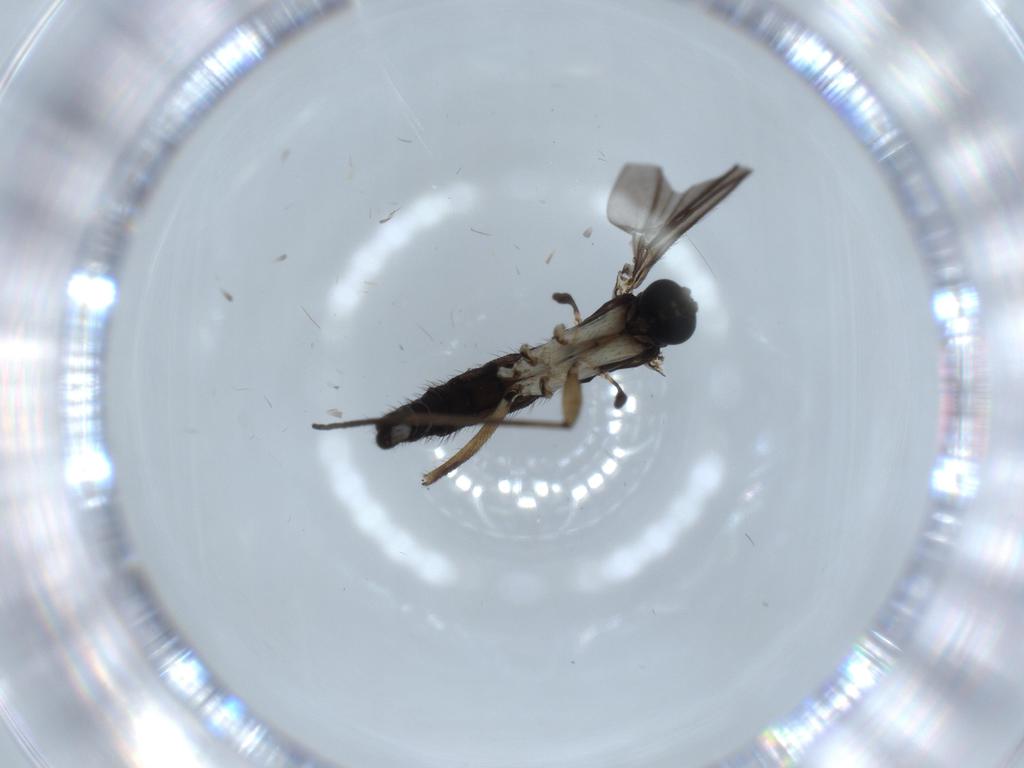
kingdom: Animalia
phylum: Arthropoda
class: Insecta
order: Diptera
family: Sciaridae
